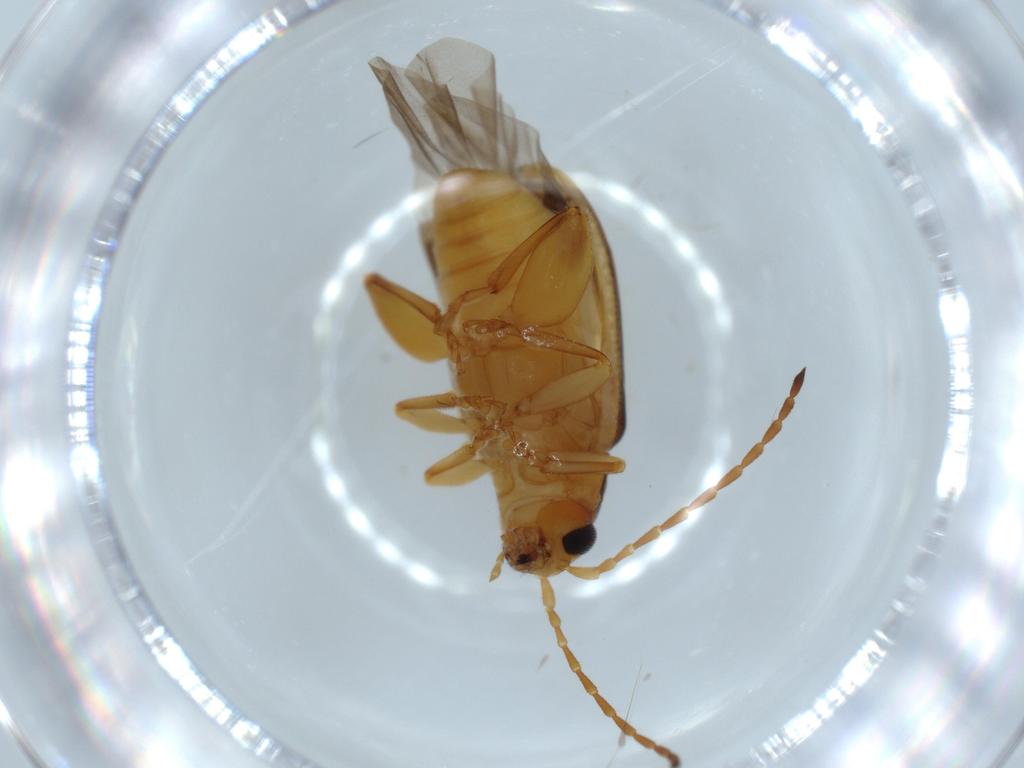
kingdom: Animalia
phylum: Arthropoda
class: Insecta
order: Coleoptera
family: Chrysomelidae
